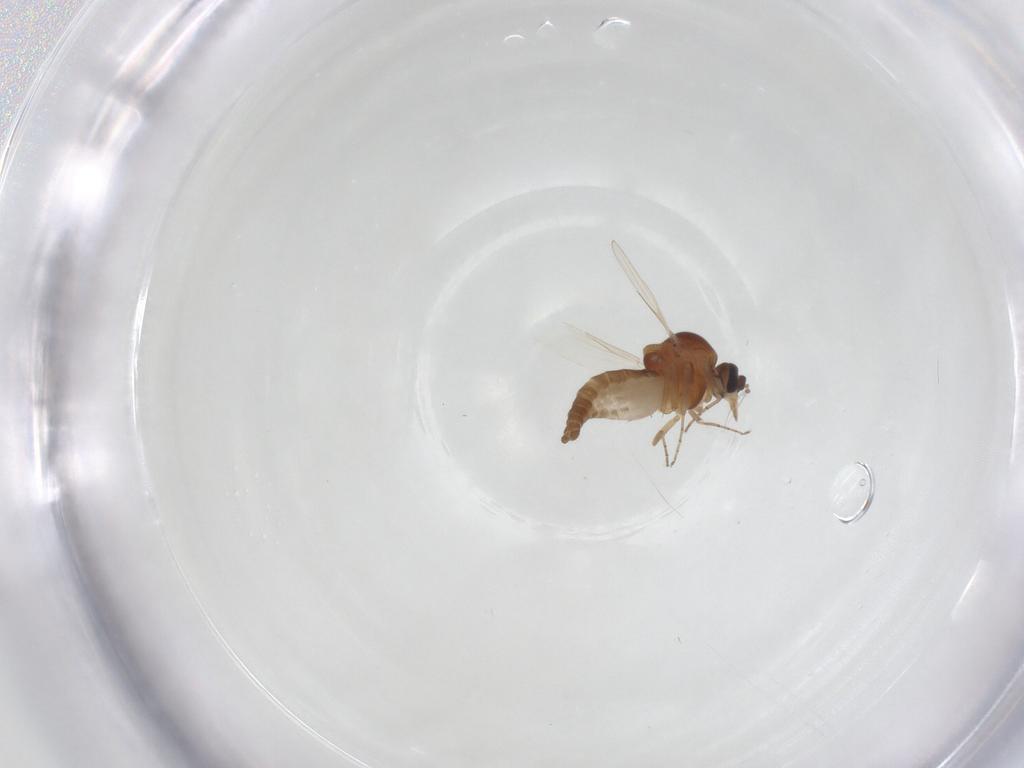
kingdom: Animalia
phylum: Arthropoda
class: Insecta
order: Diptera
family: Ceratopogonidae
